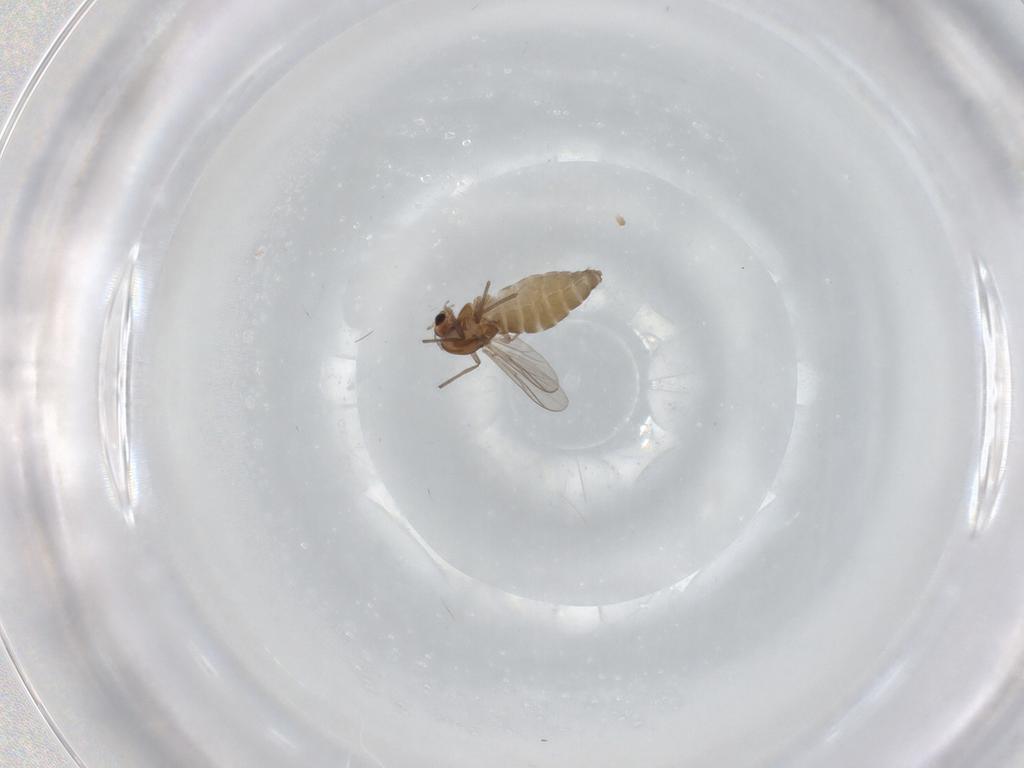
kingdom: Animalia
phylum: Arthropoda
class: Insecta
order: Diptera
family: Chironomidae
